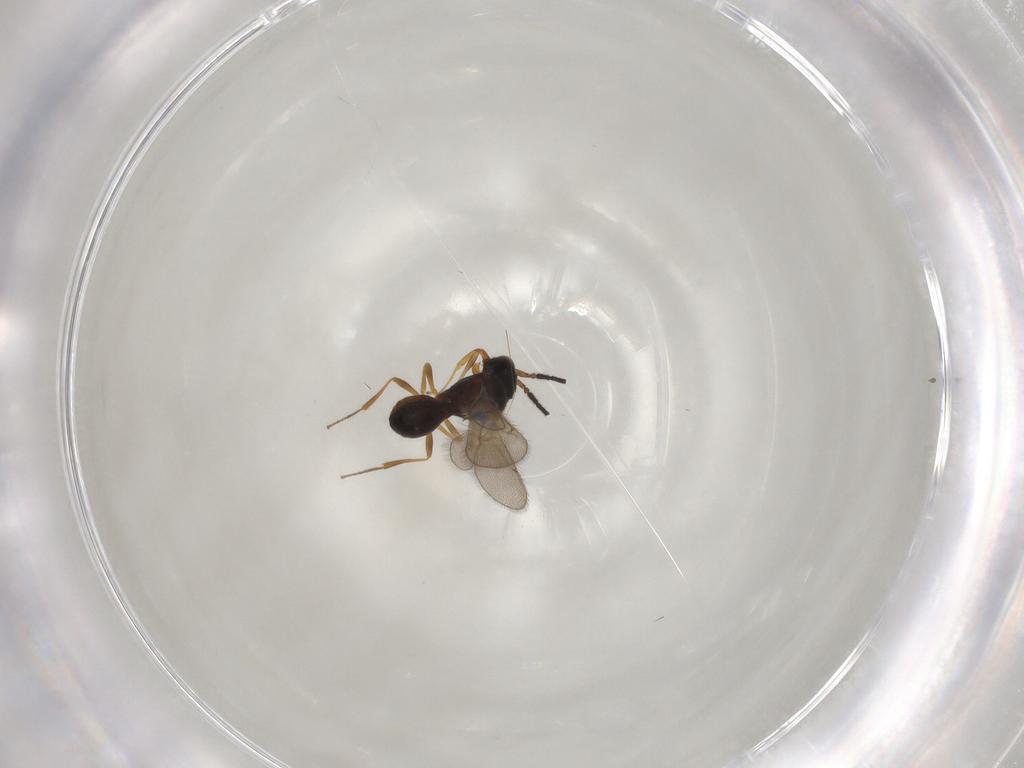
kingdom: Animalia
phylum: Arthropoda
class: Insecta
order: Hymenoptera
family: Scelionidae
